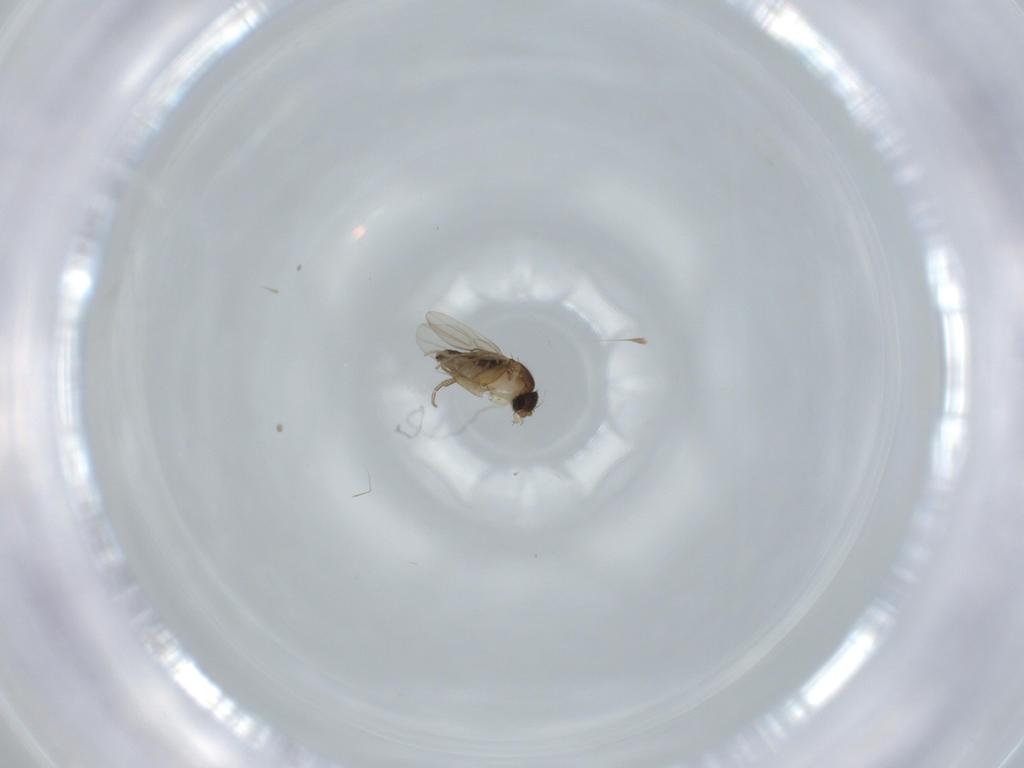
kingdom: Animalia
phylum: Arthropoda
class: Insecta
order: Diptera
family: Phoridae
